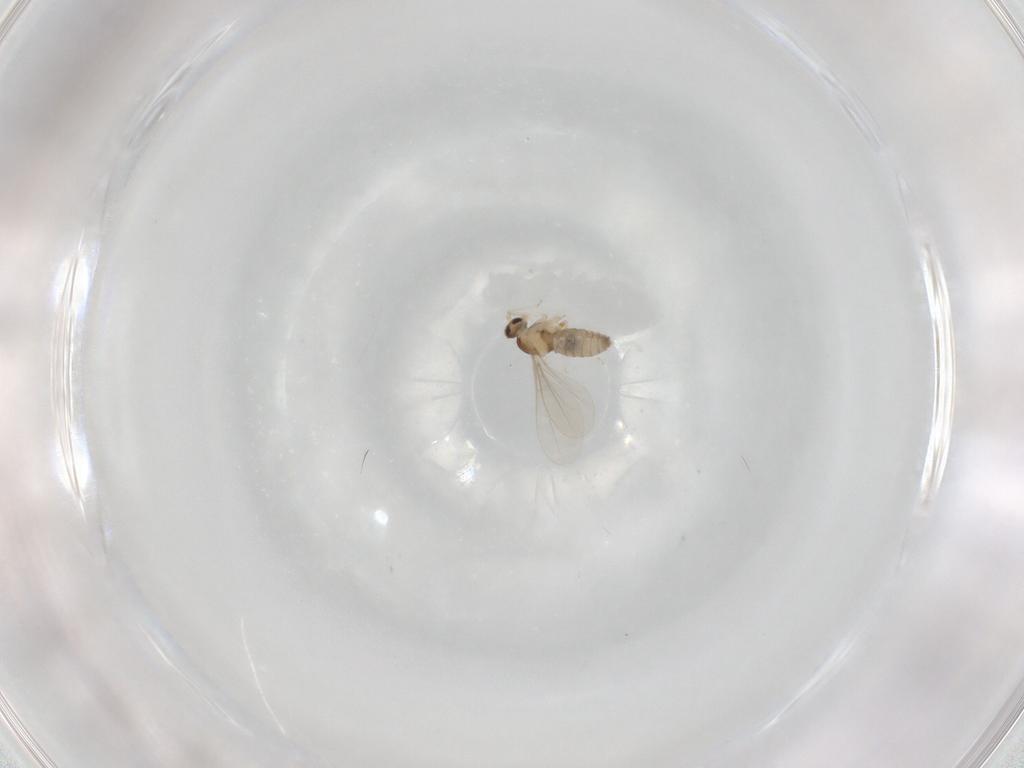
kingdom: Animalia
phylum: Arthropoda
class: Insecta
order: Diptera
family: Cecidomyiidae
